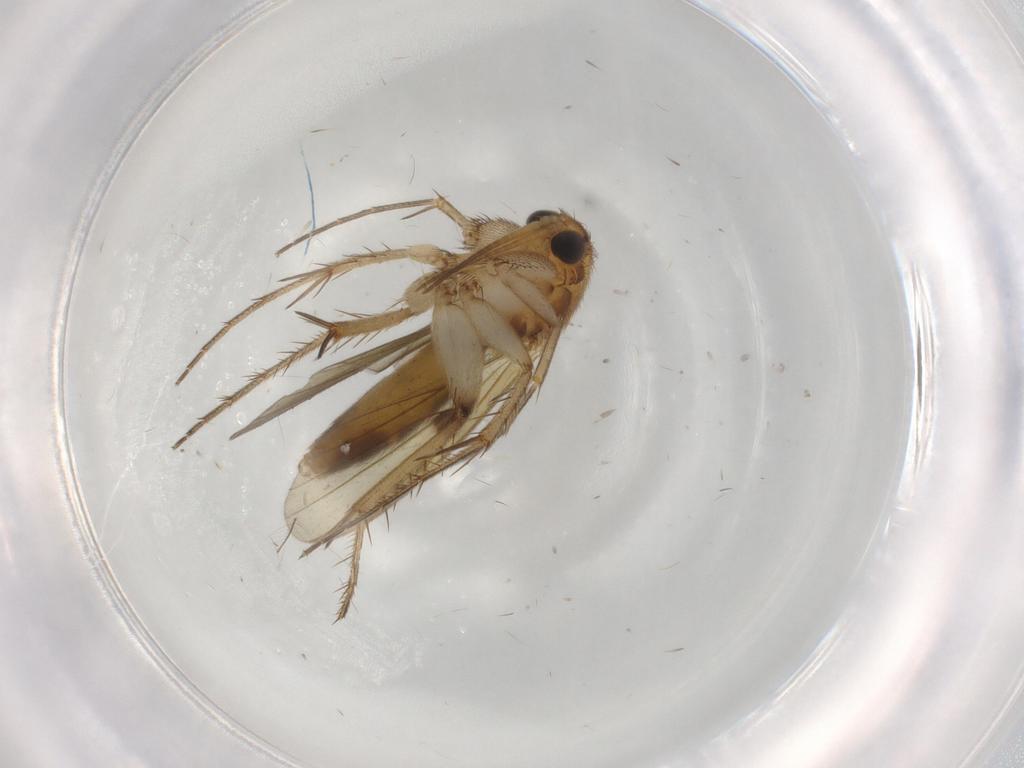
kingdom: Animalia
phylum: Arthropoda
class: Insecta
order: Diptera
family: Mycetophilidae
